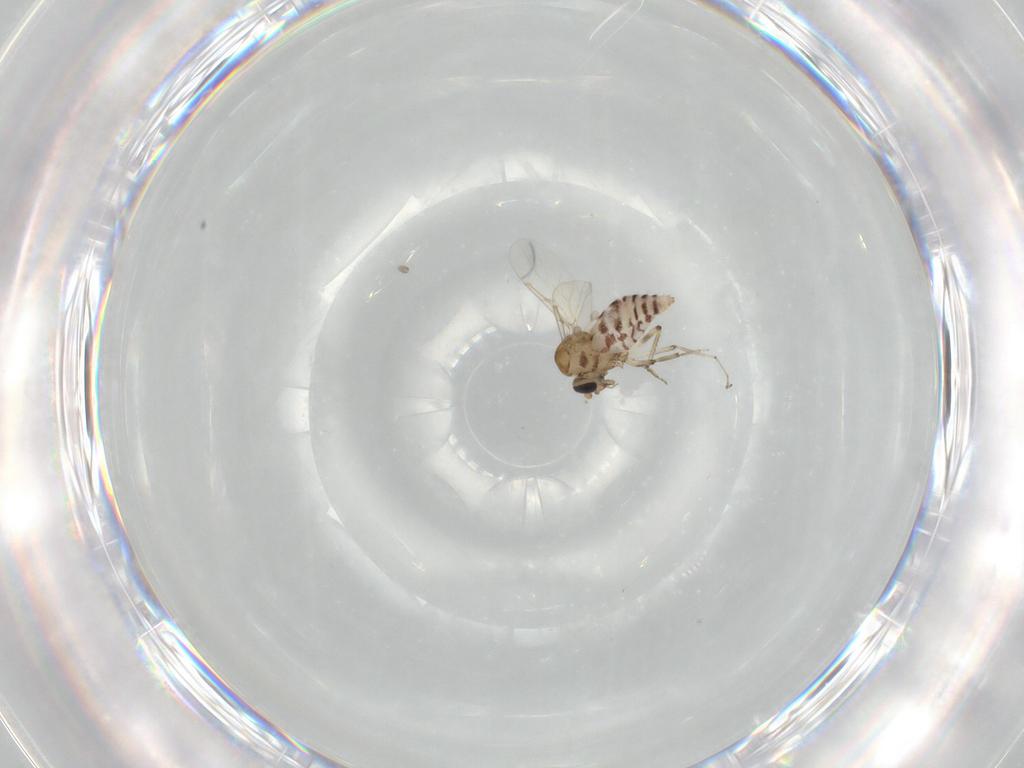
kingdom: Animalia
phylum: Arthropoda
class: Insecta
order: Diptera
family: Ceratopogonidae
